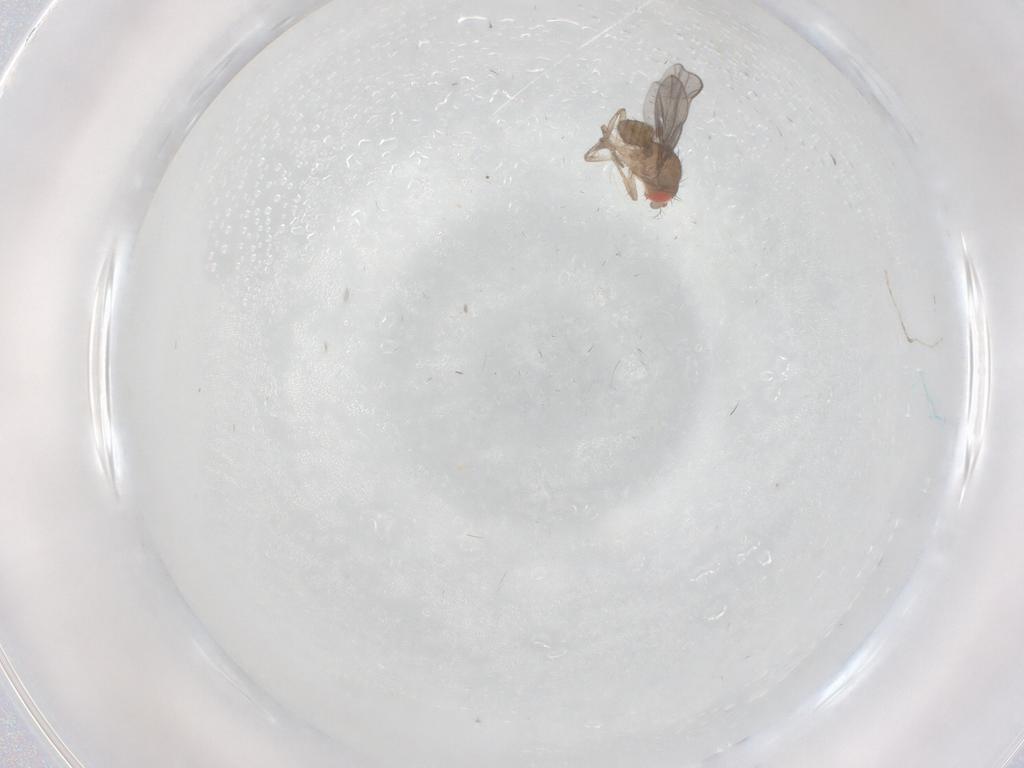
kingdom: Animalia
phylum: Arthropoda
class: Insecta
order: Diptera
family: Drosophilidae
